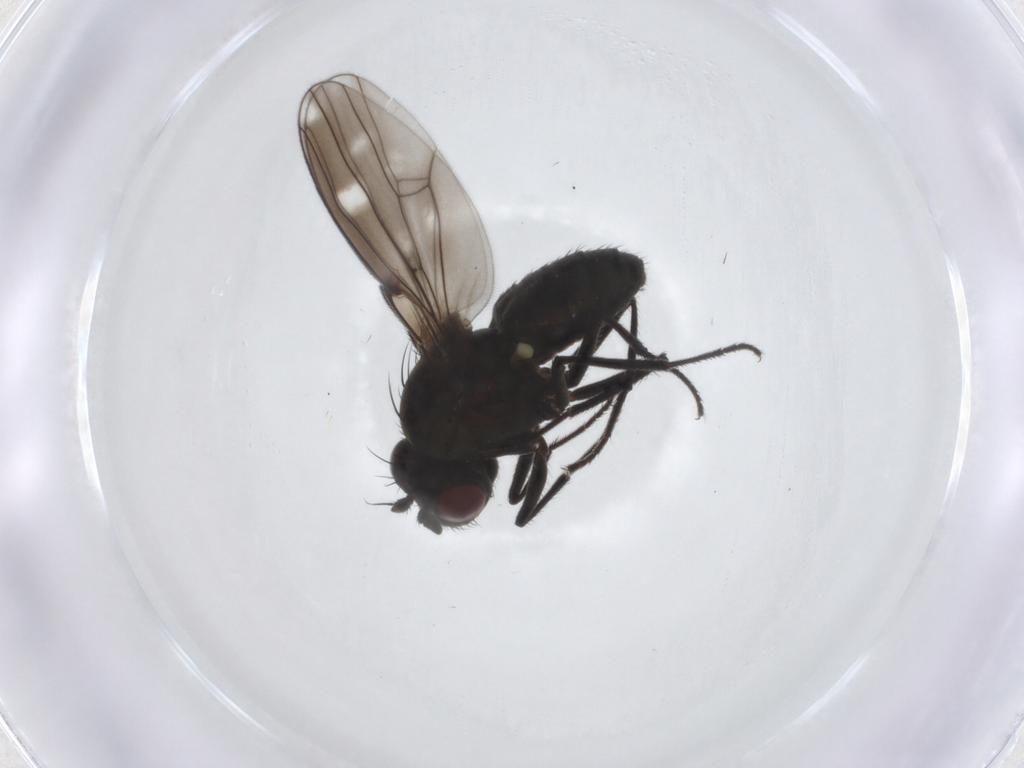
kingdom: Animalia
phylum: Arthropoda
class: Insecta
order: Diptera
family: Ephydridae
